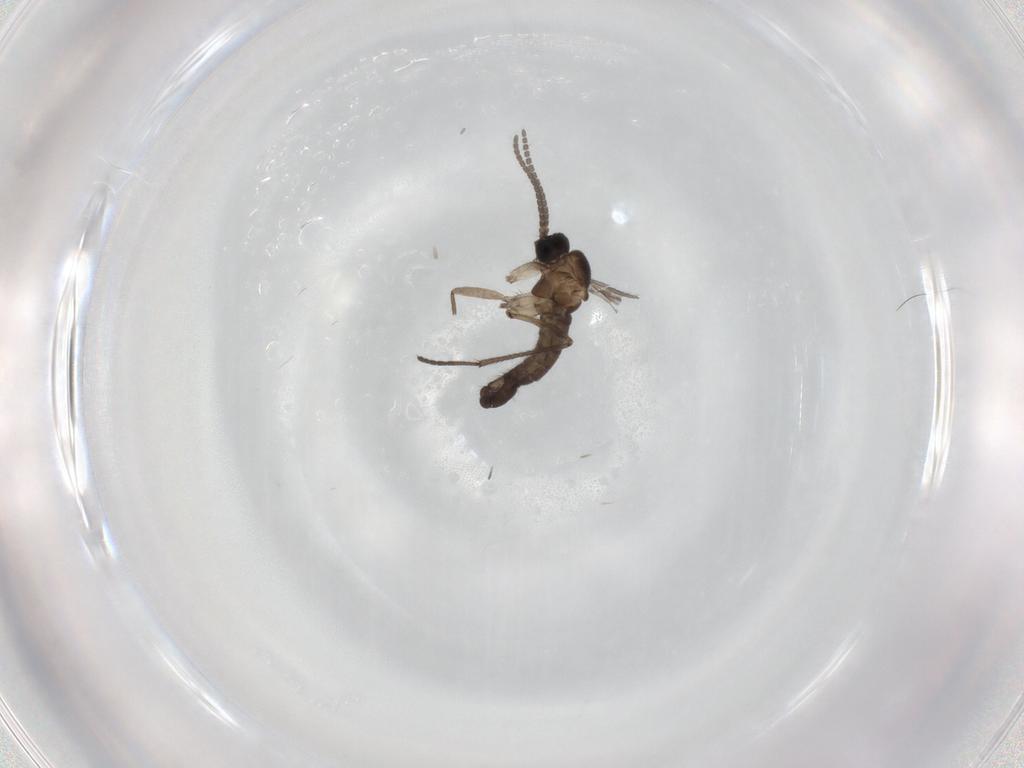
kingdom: Animalia
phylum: Arthropoda
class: Insecta
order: Diptera
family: Sciaridae
